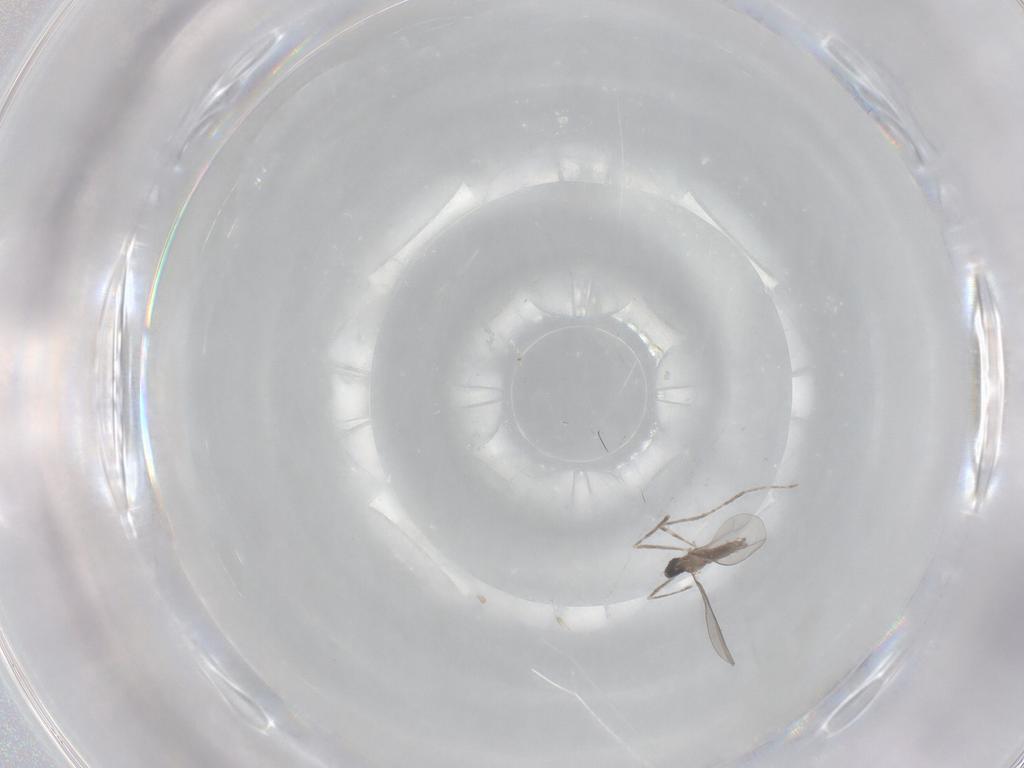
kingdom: Animalia
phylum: Arthropoda
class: Insecta
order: Diptera
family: Cecidomyiidae
